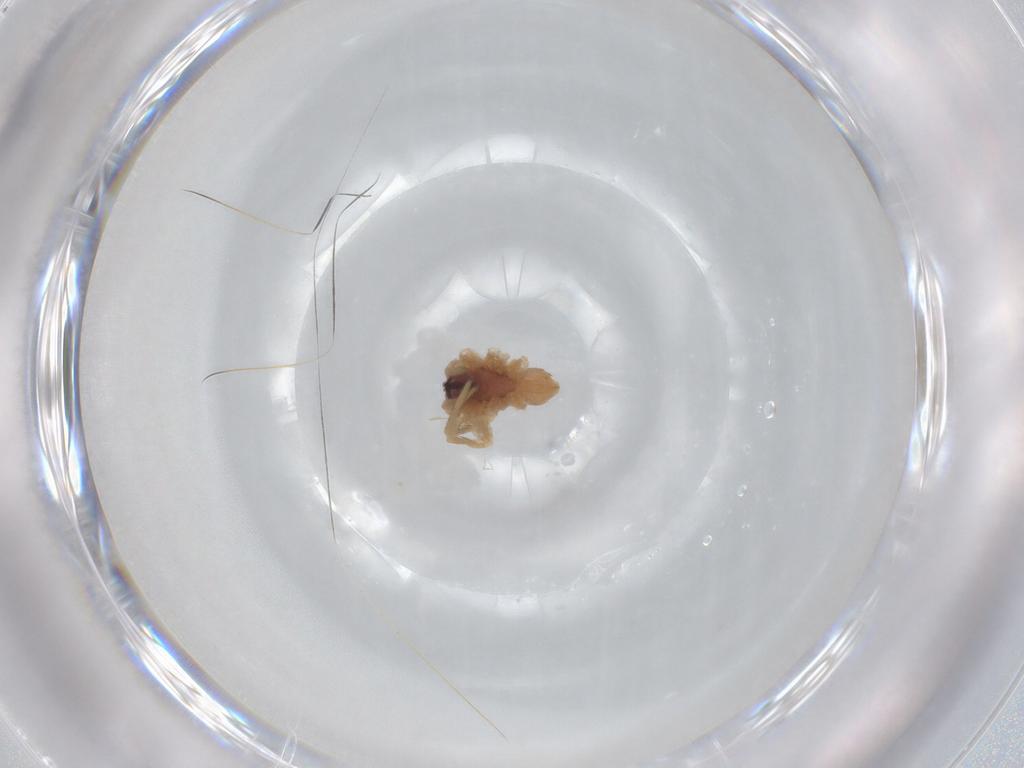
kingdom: Animalia
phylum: Arthropoda
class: Arachnida
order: Araneae
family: Lycosidae
